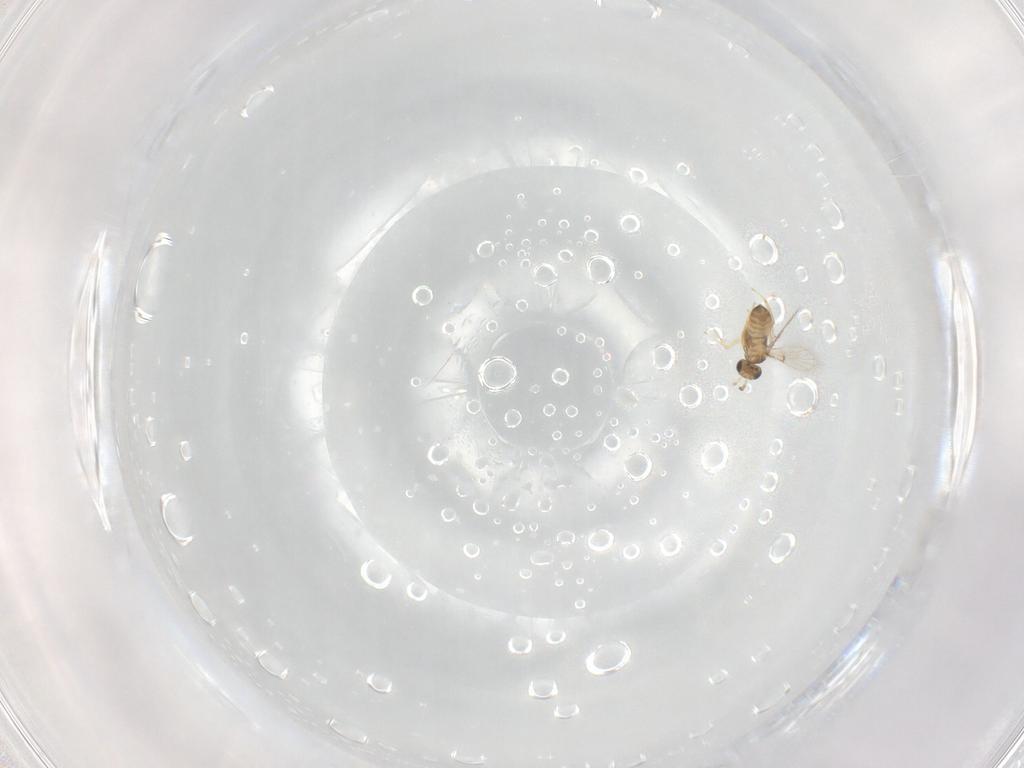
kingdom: Animalia
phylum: Arthropoda
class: Insecta
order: Hymenoptera
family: Trichogrammatidae
